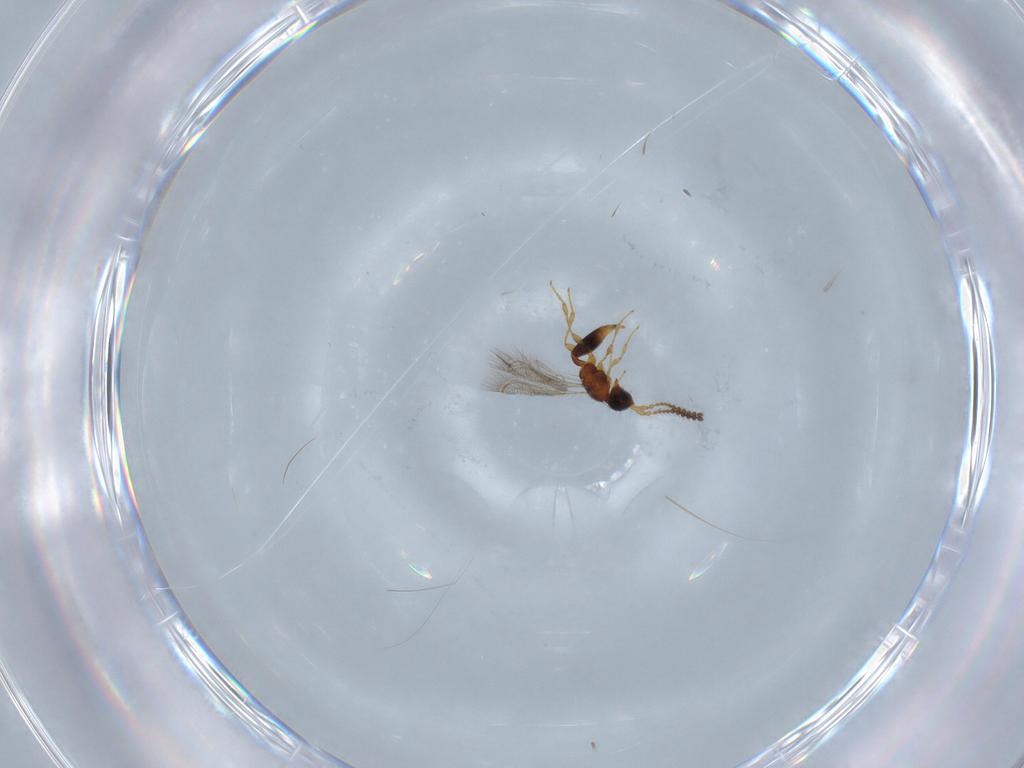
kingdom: Animalia
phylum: Arthropoda
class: Insecta
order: Hymenoptera
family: Diapriidae
